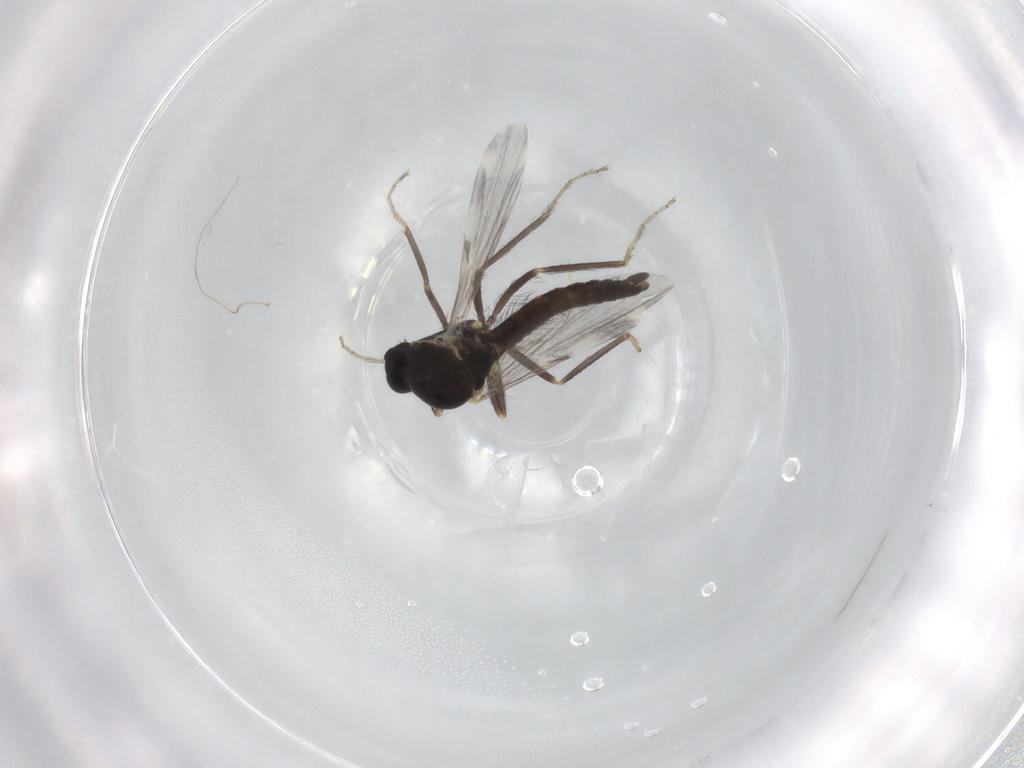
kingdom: Animalia
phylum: Arthropoda
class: Insecta
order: Diptera
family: Ceratopogonidae
